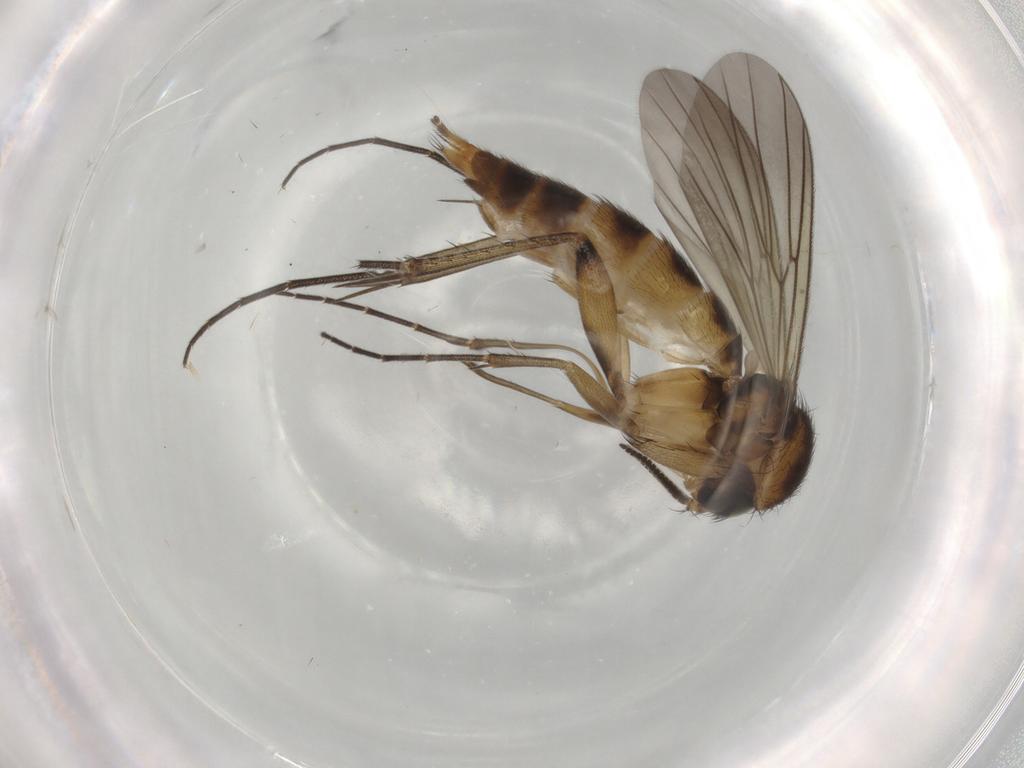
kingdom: Animalia
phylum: Arthropoda
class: Insecta
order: Diptera
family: Mycetophilidae
